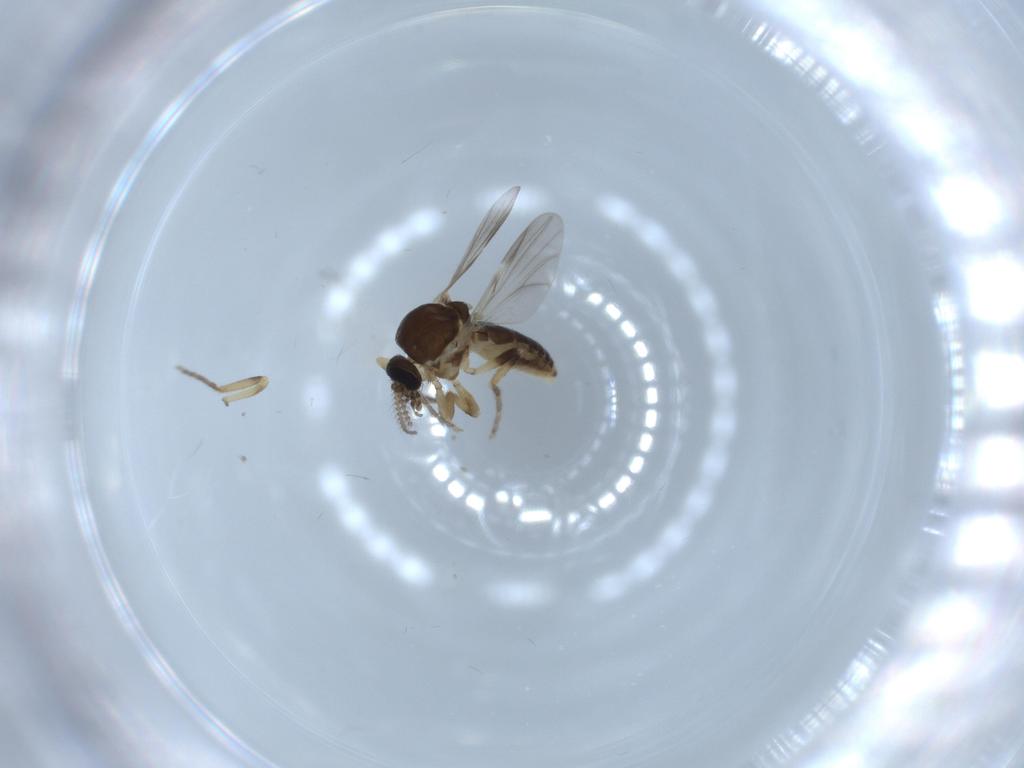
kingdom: Animalia
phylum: Arthropoda
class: Insecta
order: Diptera
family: Ceratopogonidae
